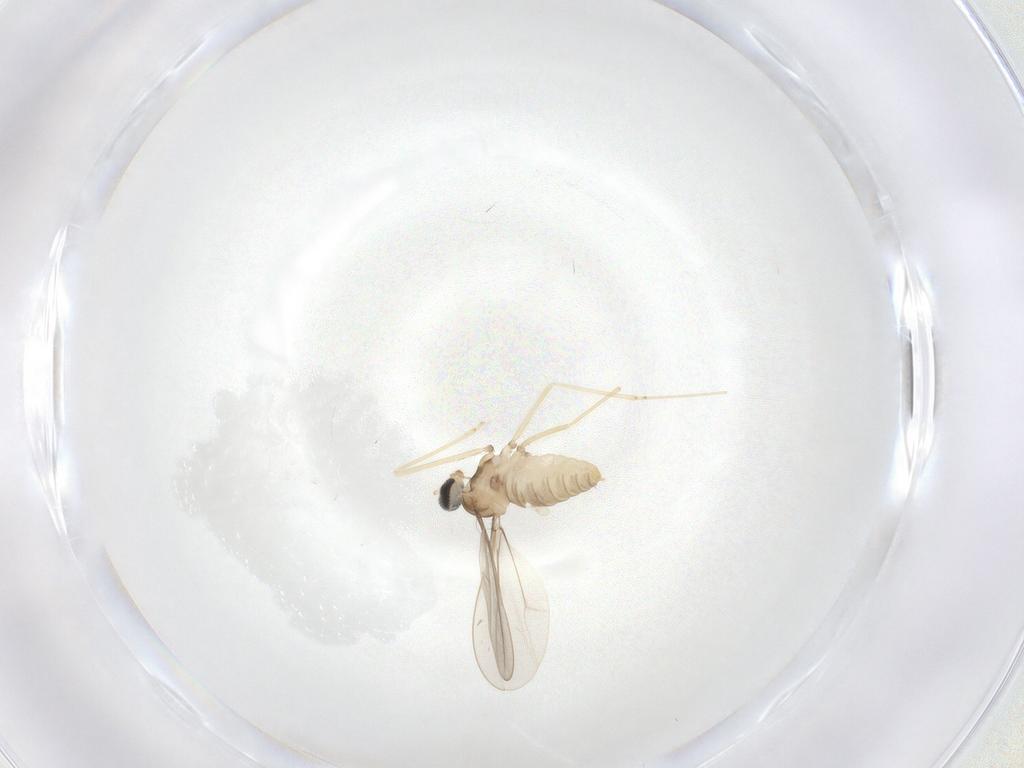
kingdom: Animalia
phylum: Arthropoda
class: Insecta
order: Diptera
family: Cecidomyiidae
